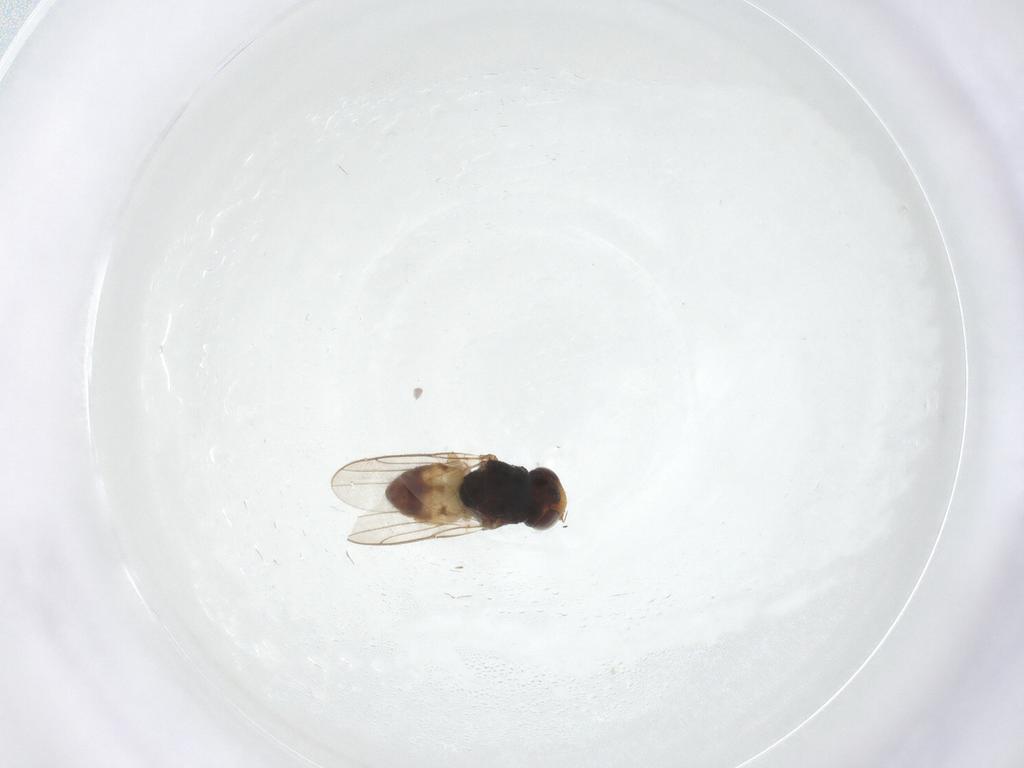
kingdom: Animalia
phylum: Arthropoda
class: Insecta
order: Diptera
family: Chloropidae
